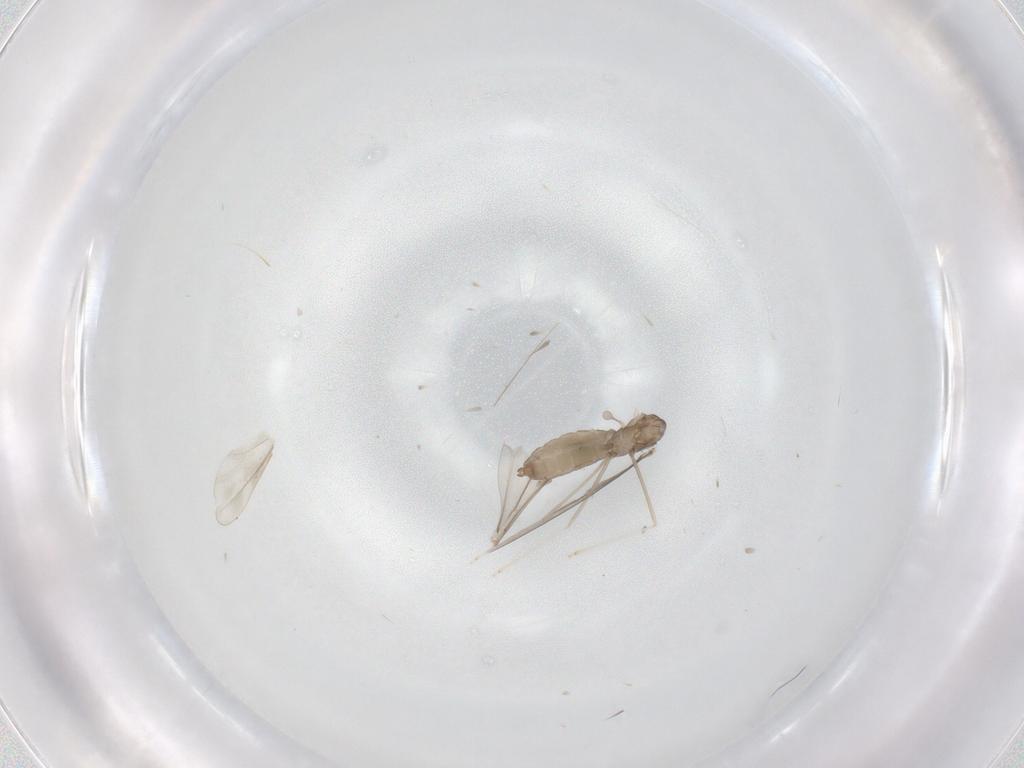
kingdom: Animalia
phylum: Arthropoda
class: Insecta
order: Diptera
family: Cecidomyiidae
